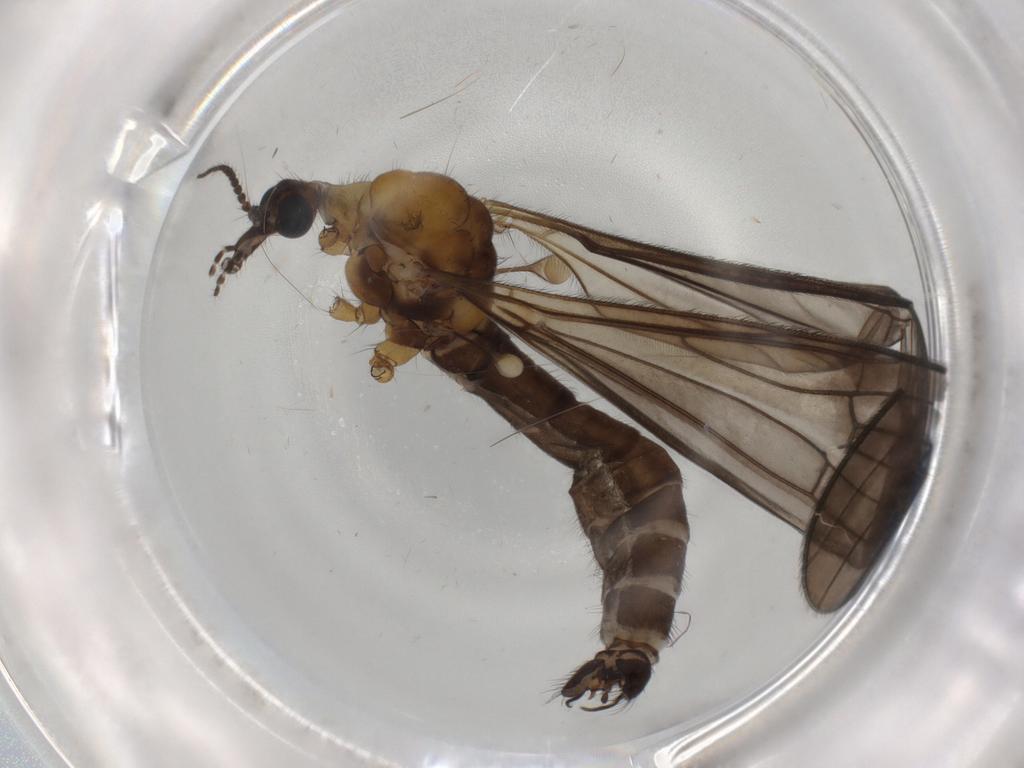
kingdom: Animalia
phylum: Arthropoda
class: Insecta
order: Diptera
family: Limoniidae
